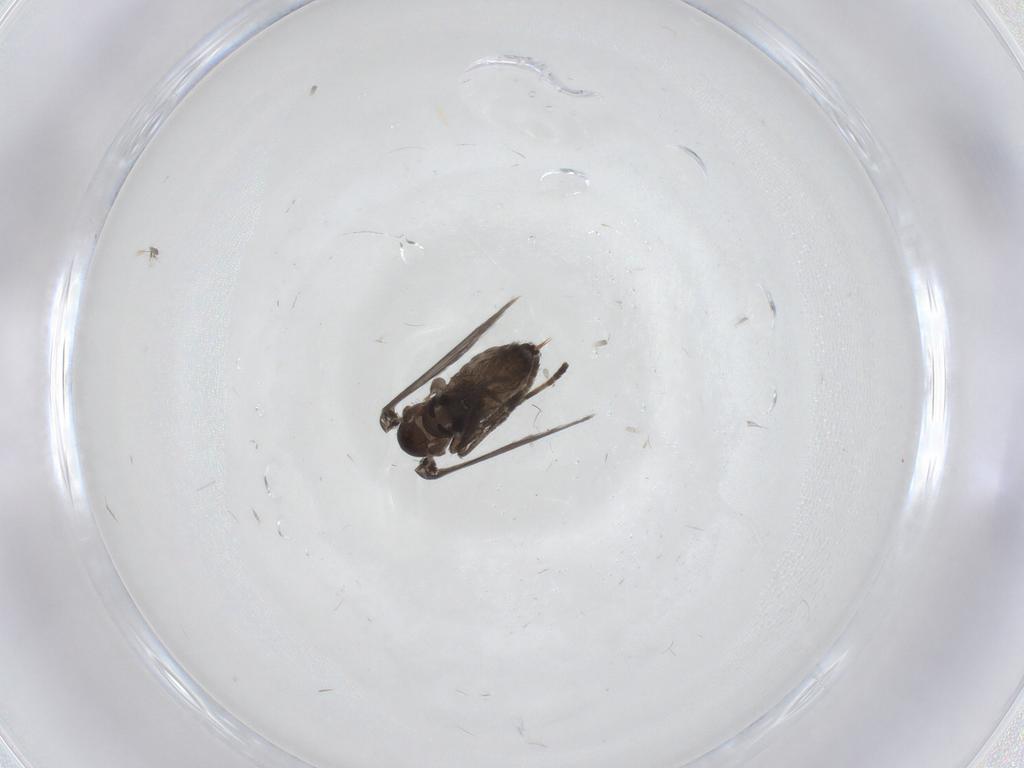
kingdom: Animalia
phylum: Arthropoda
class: Insecta
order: Diptera
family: Psychodidae
